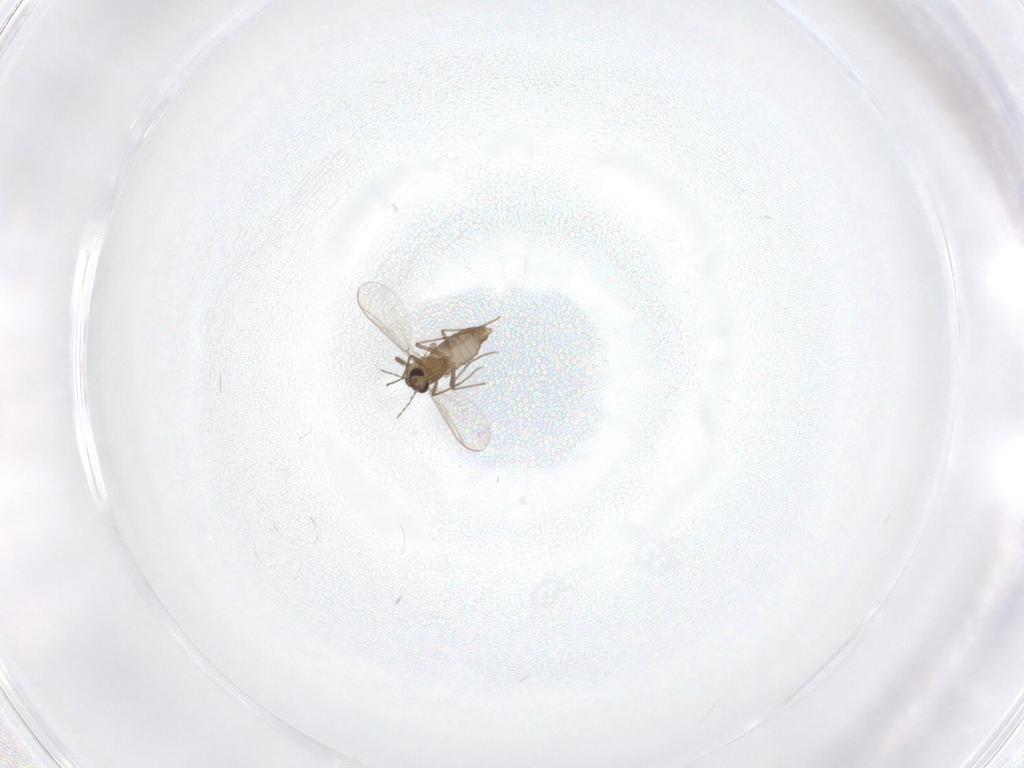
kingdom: Animalia
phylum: Arthropoda
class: Insecta
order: Diptera
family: Chironomidae
